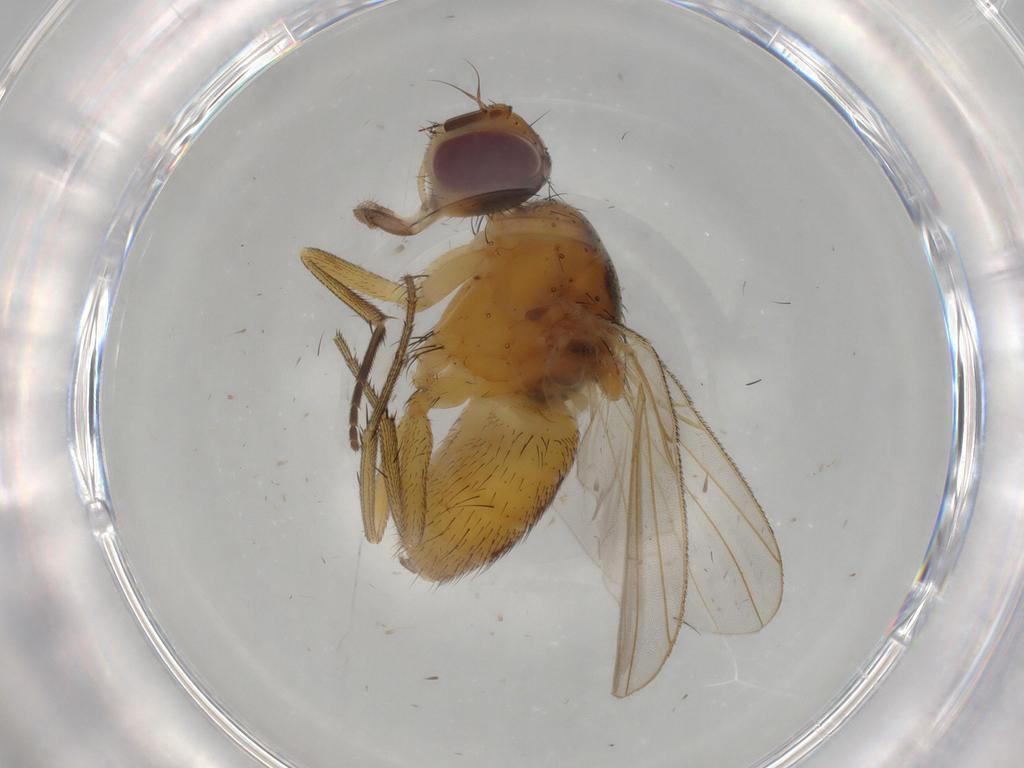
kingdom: Animalia
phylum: Arthropoda
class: Insecta
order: Diptera
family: Muscidae
